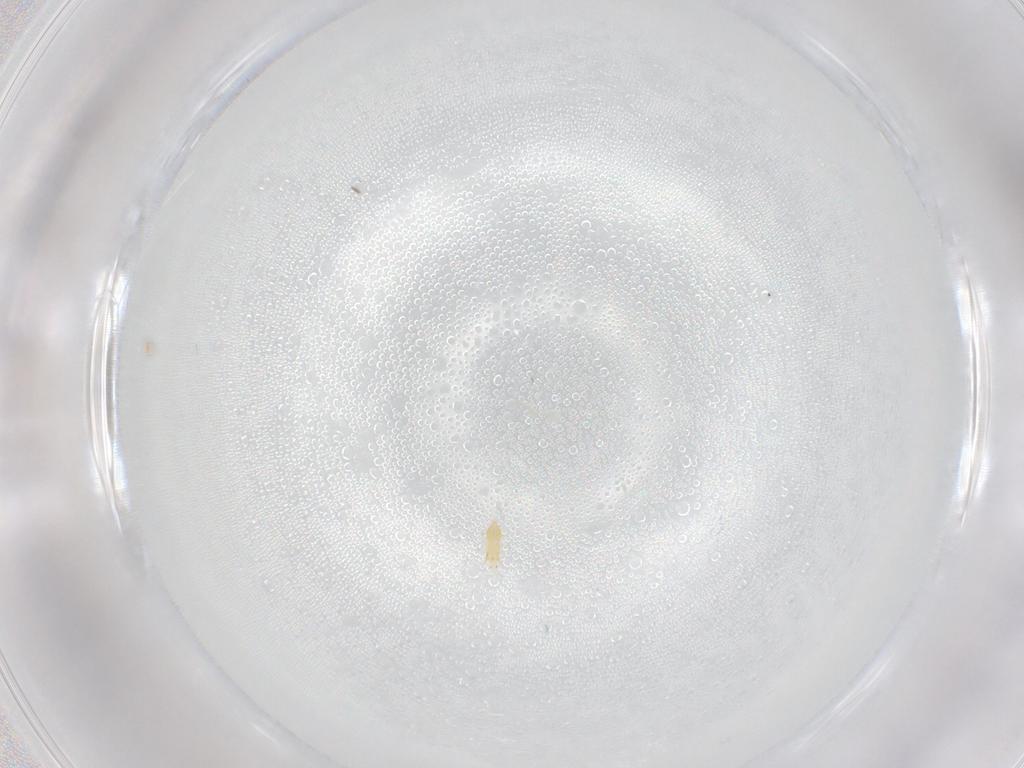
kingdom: Animalia
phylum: Arthropoda
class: Insecta
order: Thysanoptera
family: Thripidae
